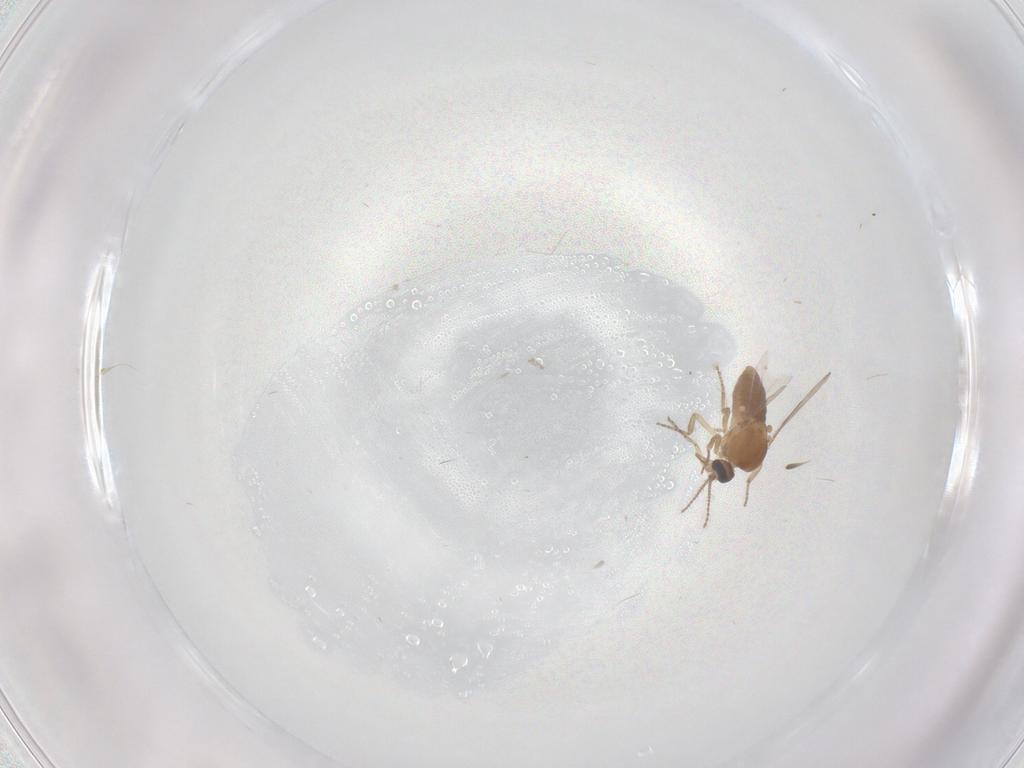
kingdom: Animalia
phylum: Arthropoda
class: Insecta
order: Diptera
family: Ceratopogonidae
